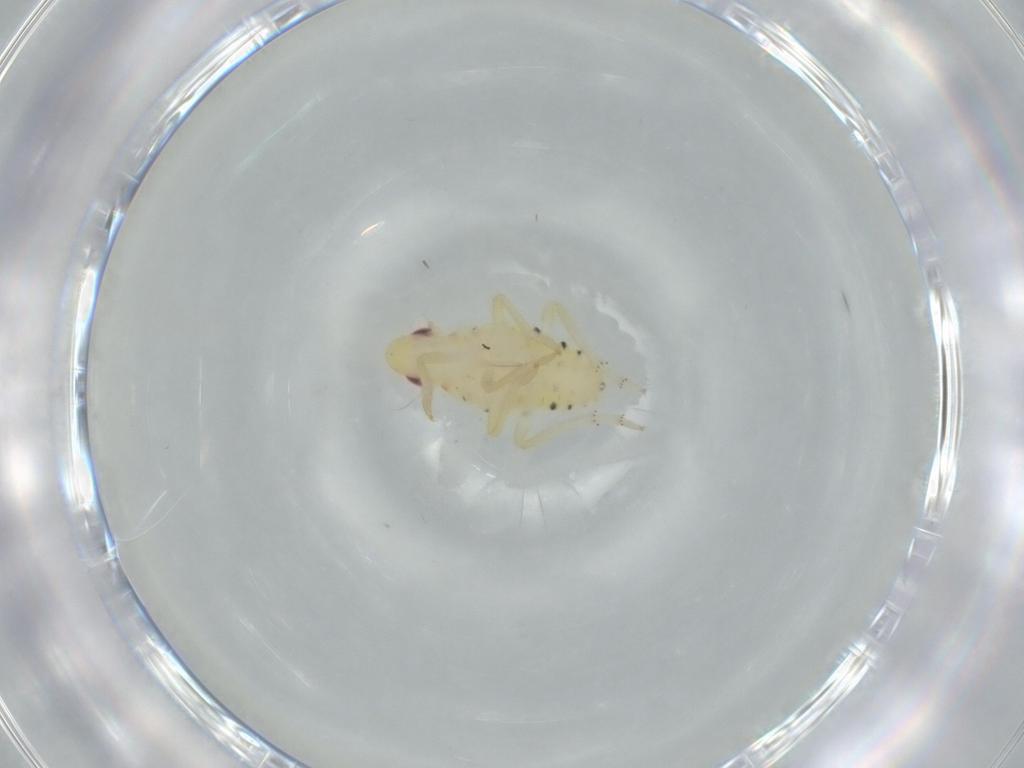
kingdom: Animalia
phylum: Arthropoda
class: Insecta
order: Hemiptera
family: Tropiduchidae
